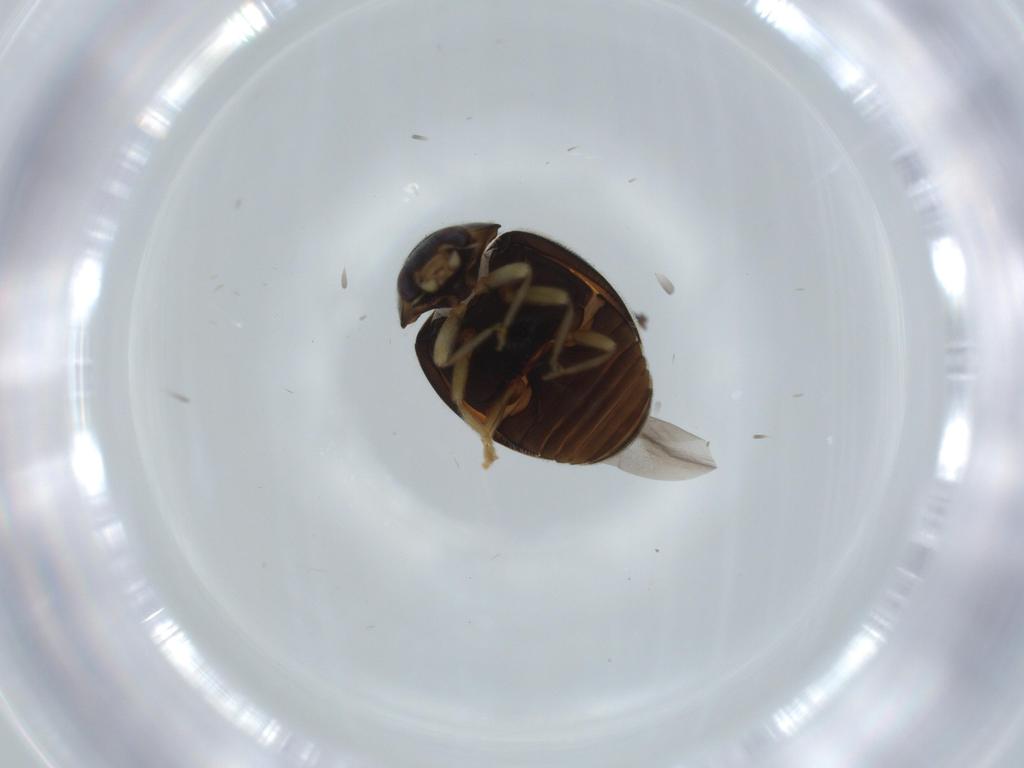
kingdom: Animalia
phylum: Arthropoda
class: Insecta
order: Coleoptera
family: Coccinellidae
